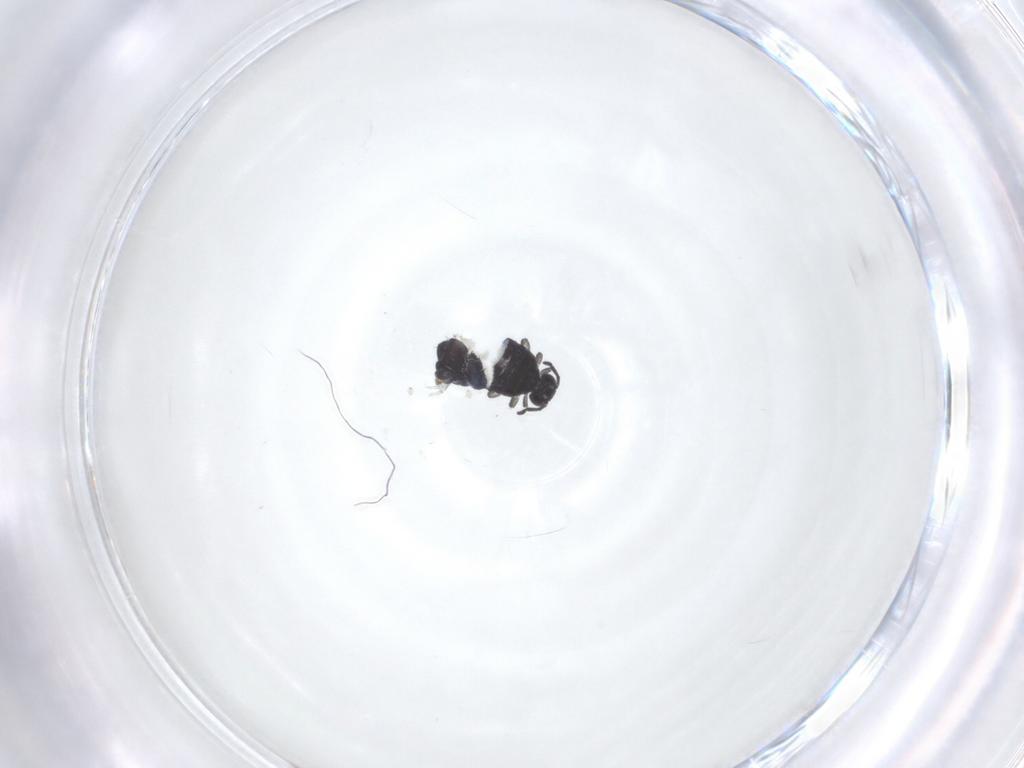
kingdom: Animalia
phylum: Arthropoda
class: Collembola
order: Symphypleona
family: Katiannidae
